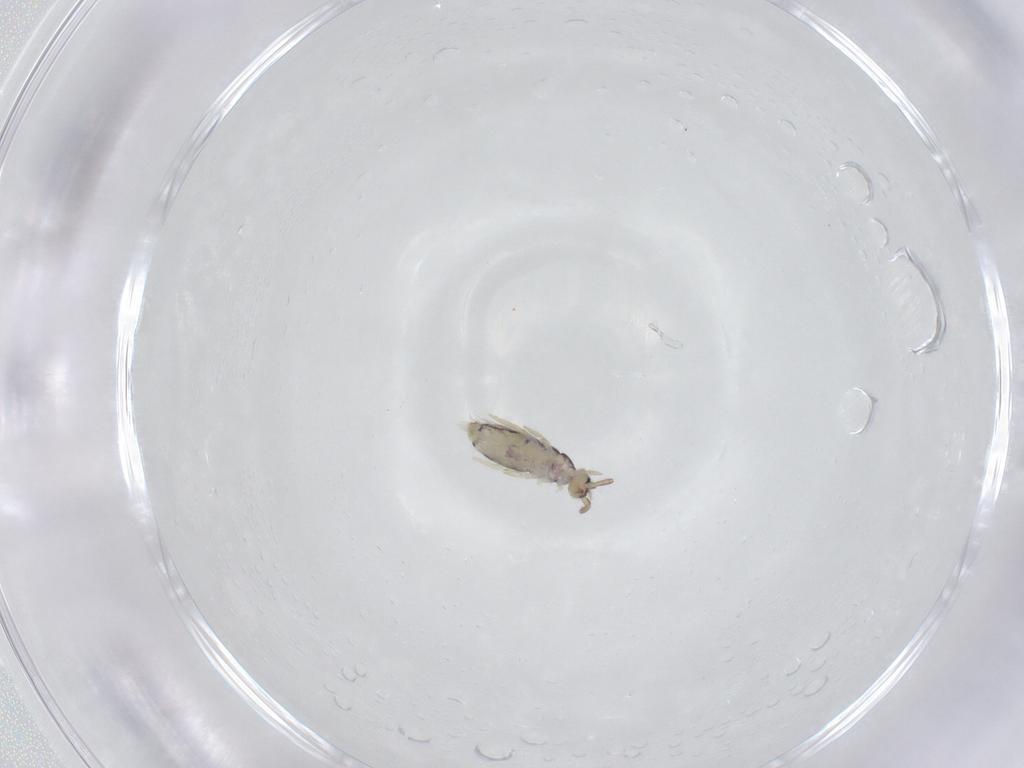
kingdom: Animalia
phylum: Arthropoda
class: Collembola
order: Entomobryomorpha
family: Entomobryidae
